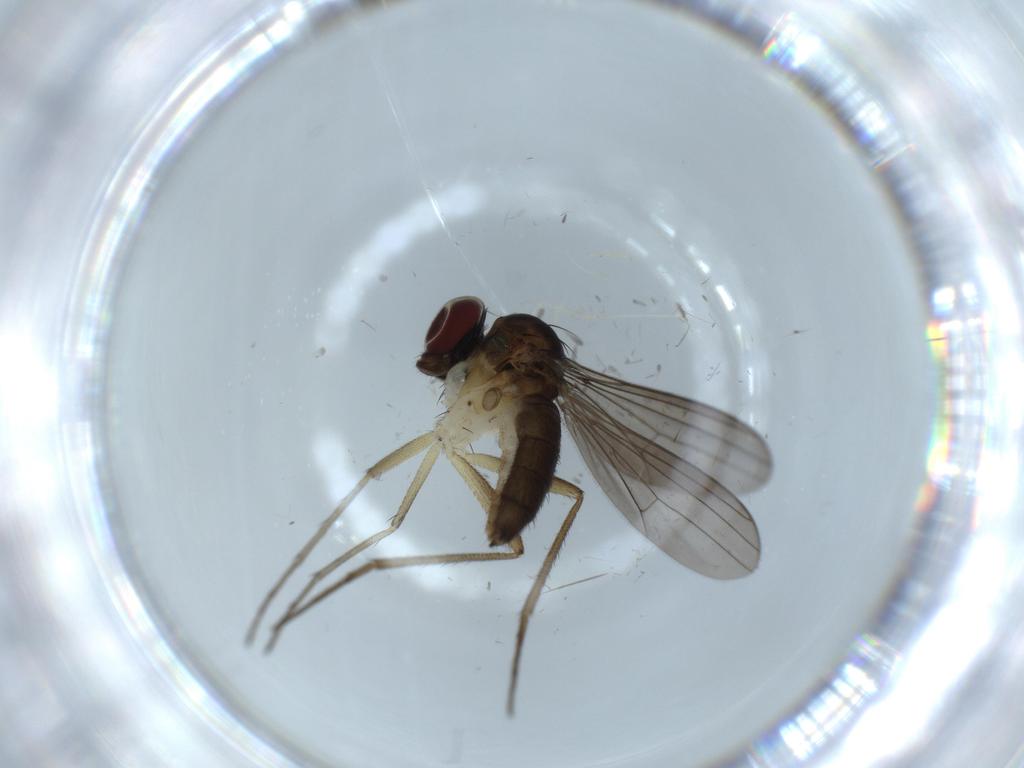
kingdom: Animalia
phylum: Arthropoda
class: Insecta
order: Diptera
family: Dolichopodidae
